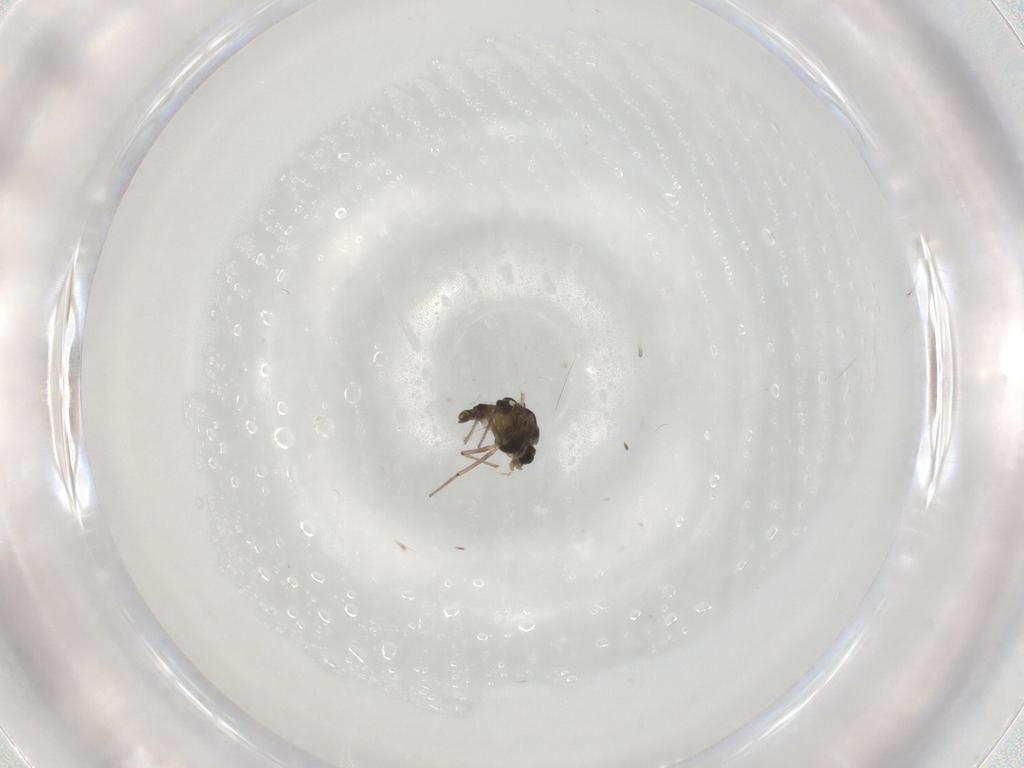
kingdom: Animalia
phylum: Arthropoda
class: Insecta
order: Diptera
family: Chironomidae
